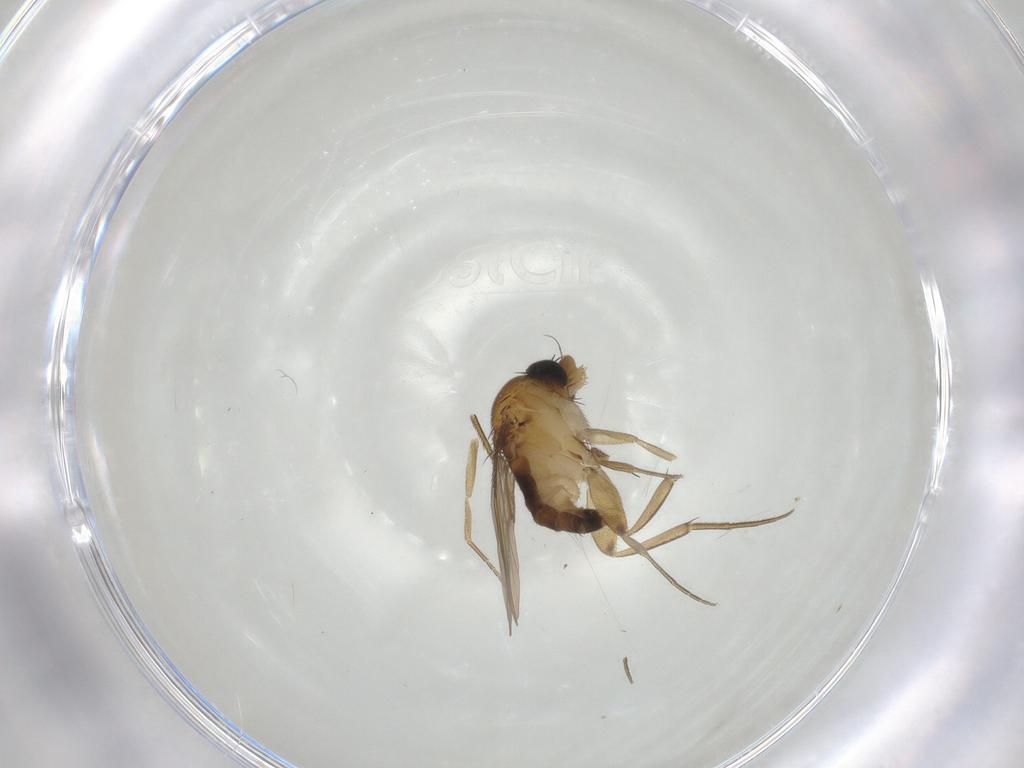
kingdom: Animalia
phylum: Arthropoda
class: Insecta
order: Diptera
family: Phoridae
